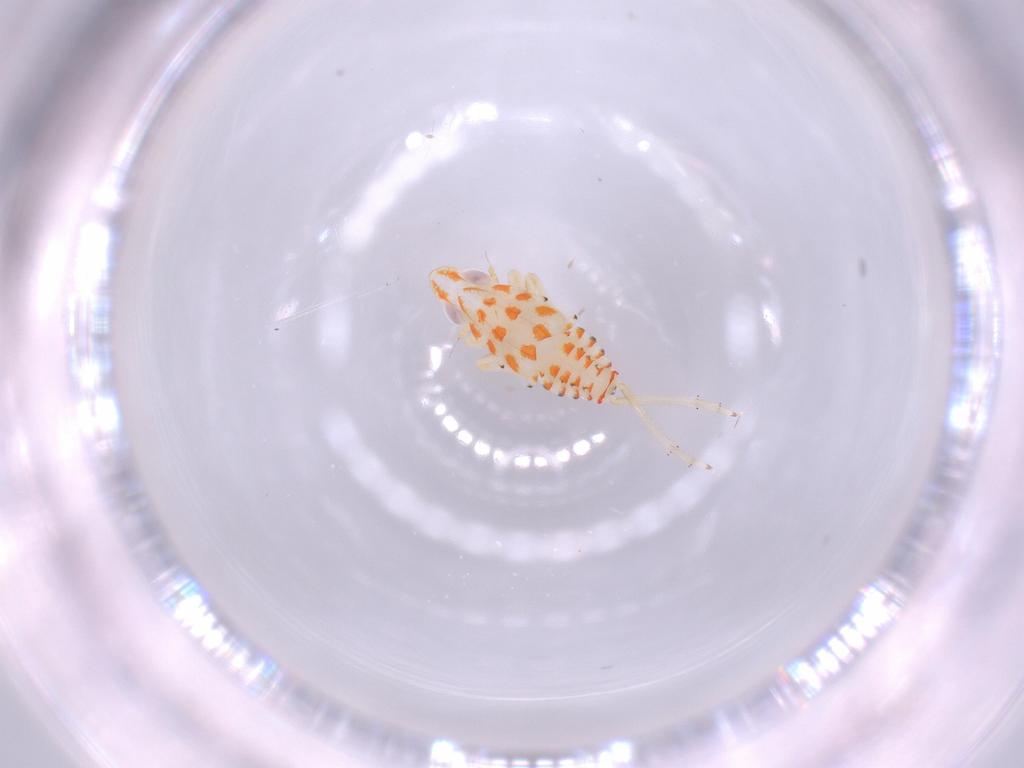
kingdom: Animalia
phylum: Arthropoda
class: Insecta
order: Hemiptera
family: Tropiduchidae
